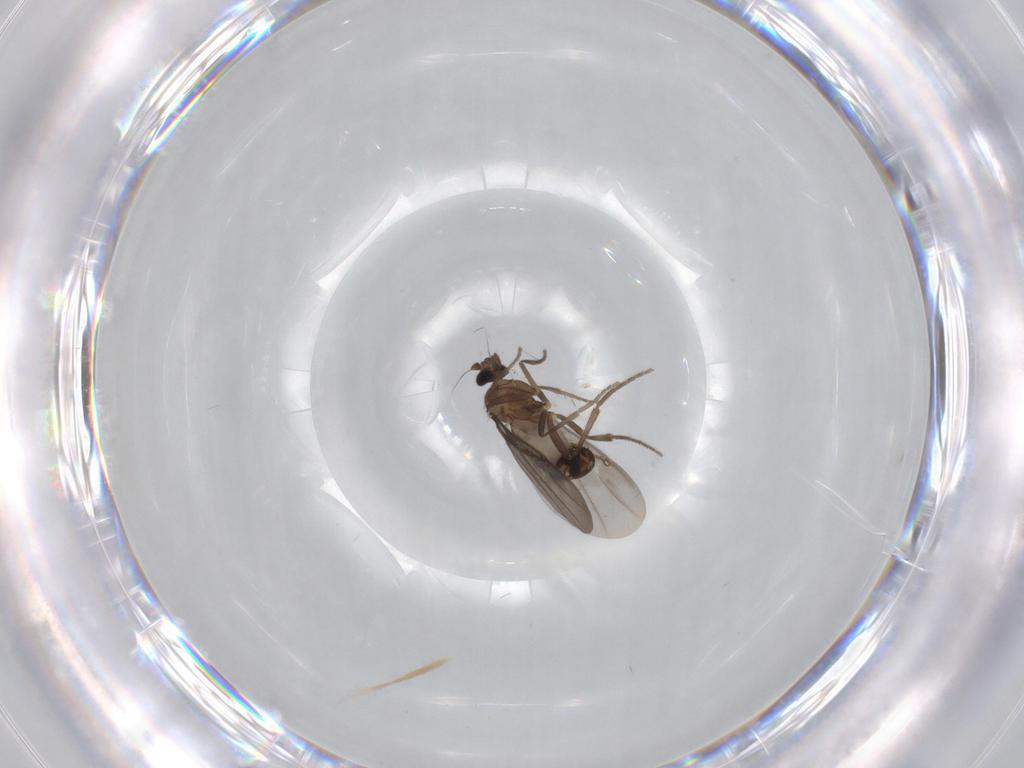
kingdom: Animalia
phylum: Arthropoda
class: Insecta
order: Diptera
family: Phoridae
